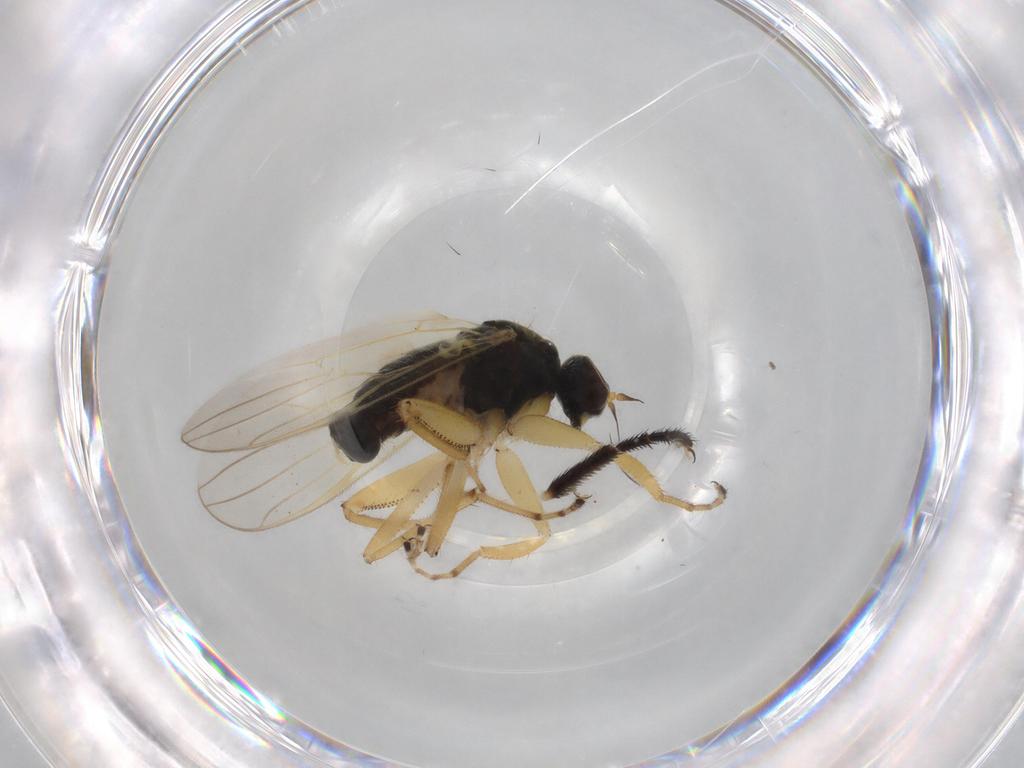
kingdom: Animalia
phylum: Arthropoda
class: Insecta
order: Diptera
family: Hybotidae
